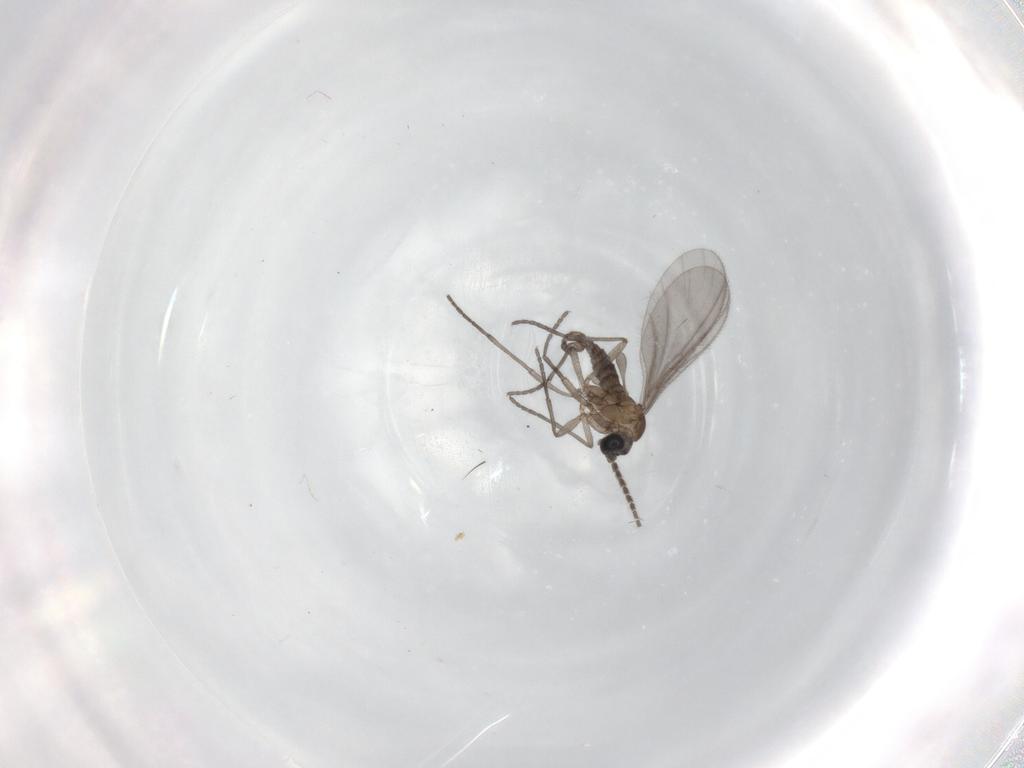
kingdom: Animalia
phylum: Arthropoda
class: Insecta
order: Diptera
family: Sciaridae
